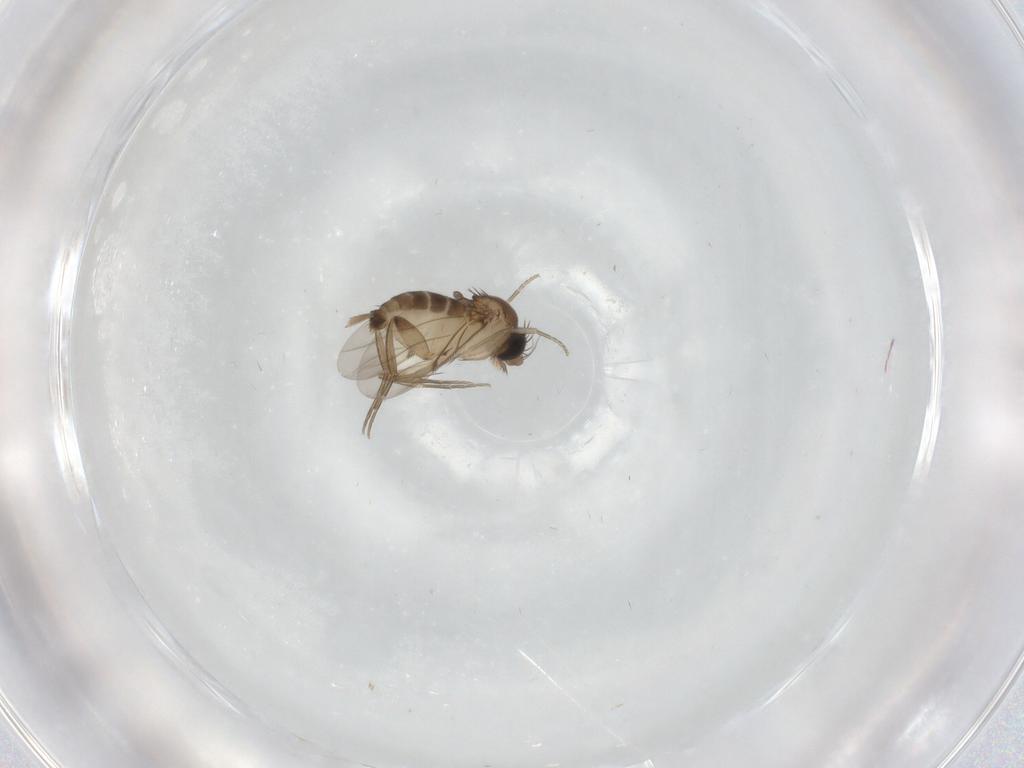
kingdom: Animalia
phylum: Arthropoda
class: Insecta
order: Diptera
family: Phoridae
